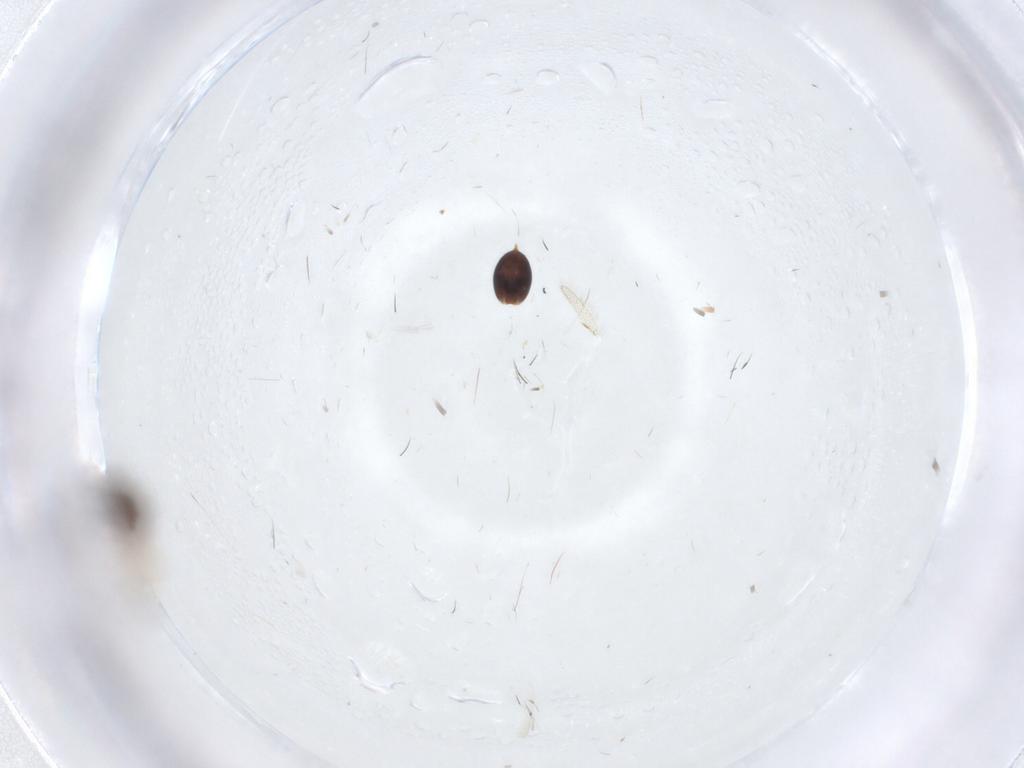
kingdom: Animalia
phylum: Arthropoda
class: Insecta
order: Hymenoptera
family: Diapriidae
